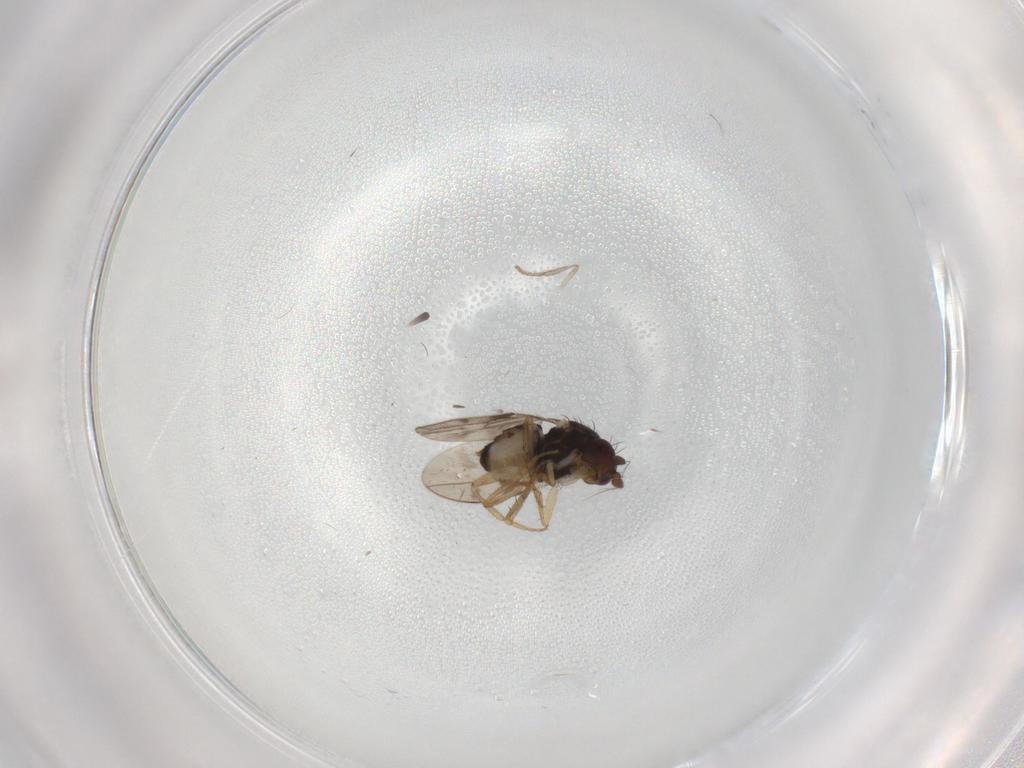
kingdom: Animalia
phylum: Arthropoda
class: Insecta
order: Diptera
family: Sphaeroceridae
